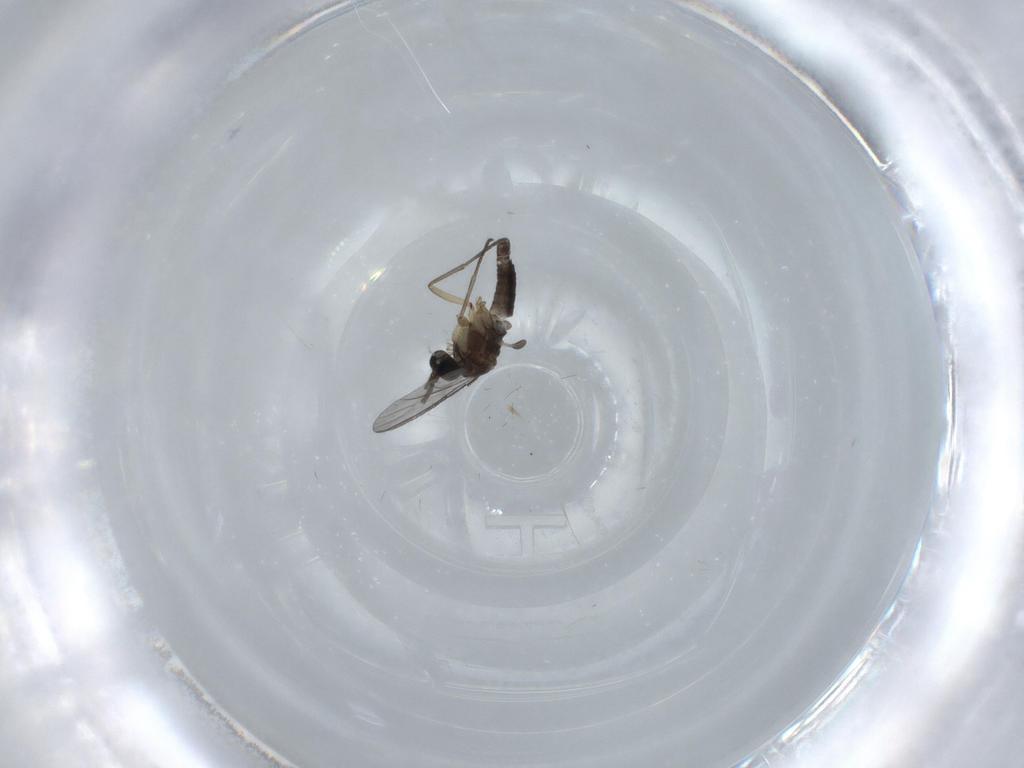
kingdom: Animalia
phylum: Arthropoda
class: Insecta
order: Diptera
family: Sciaridae
